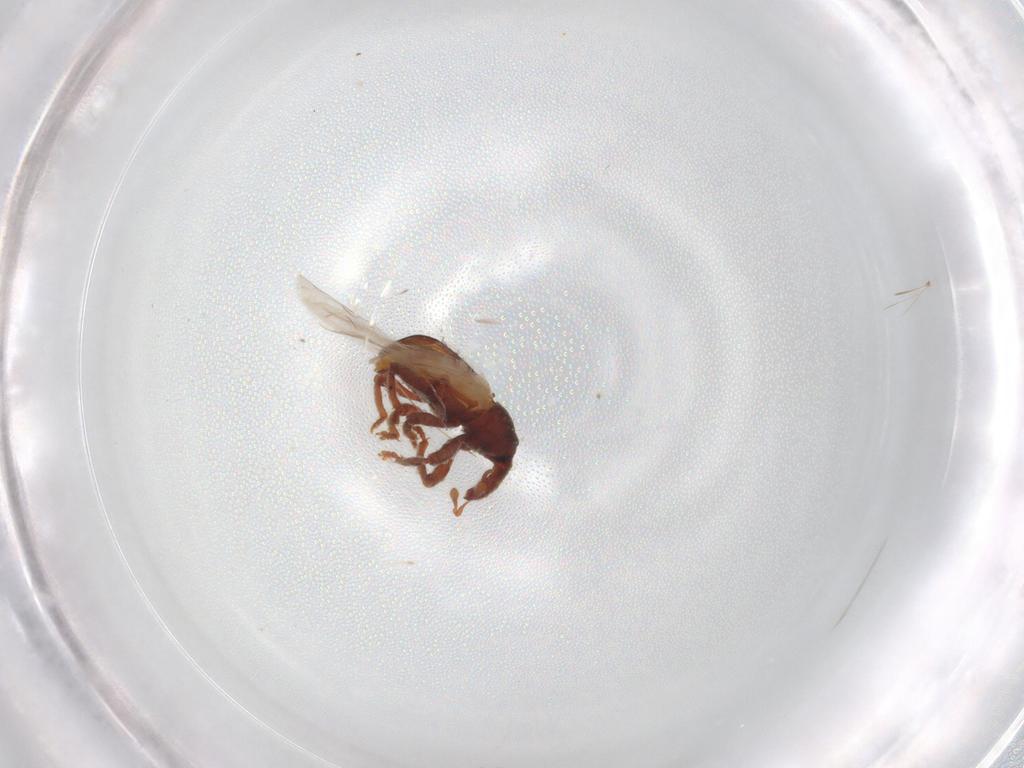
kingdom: Animalia
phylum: Arthropoda
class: Insecta
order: Coleoptera
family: Curculionidae
